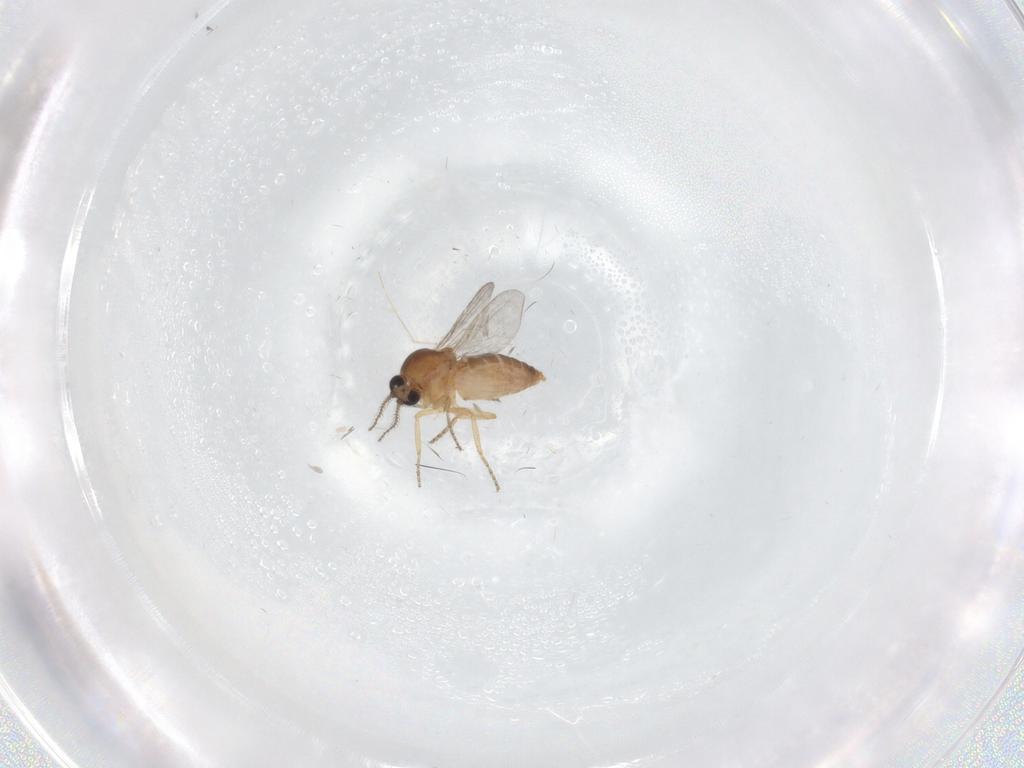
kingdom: Animalia
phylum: Arthropoda
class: Insecta
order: Diptera
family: Ceratopogonidae
